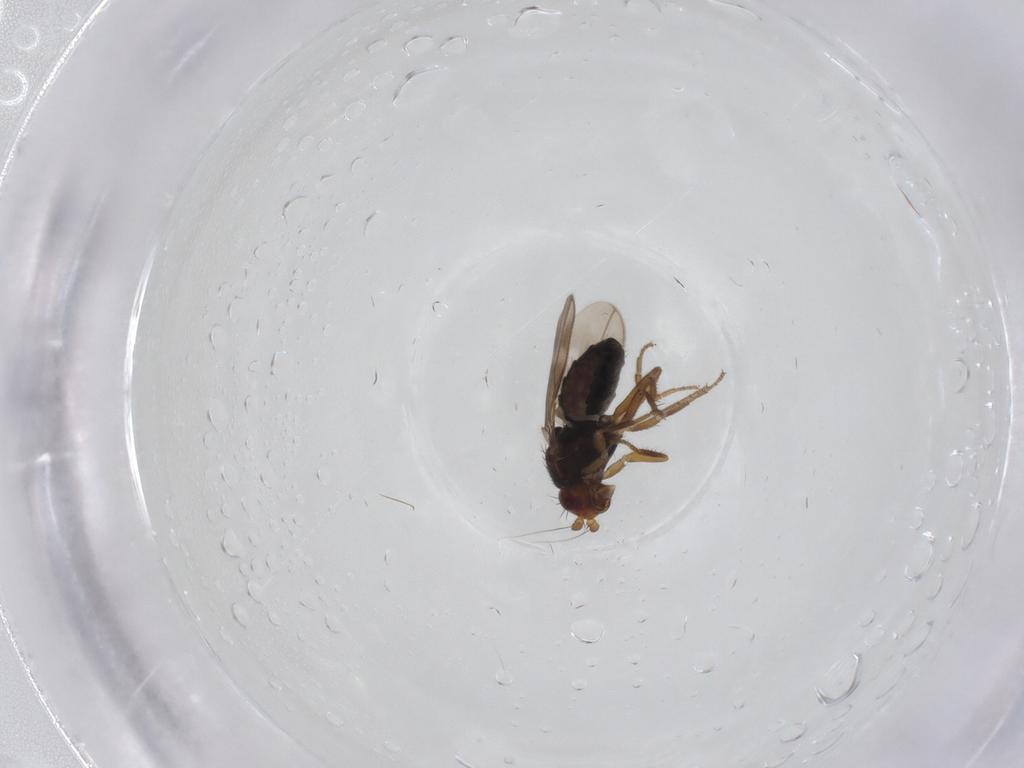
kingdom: Animalia
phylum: Arthropoda
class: Insecta
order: Diptera
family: Sphaeroceridae
